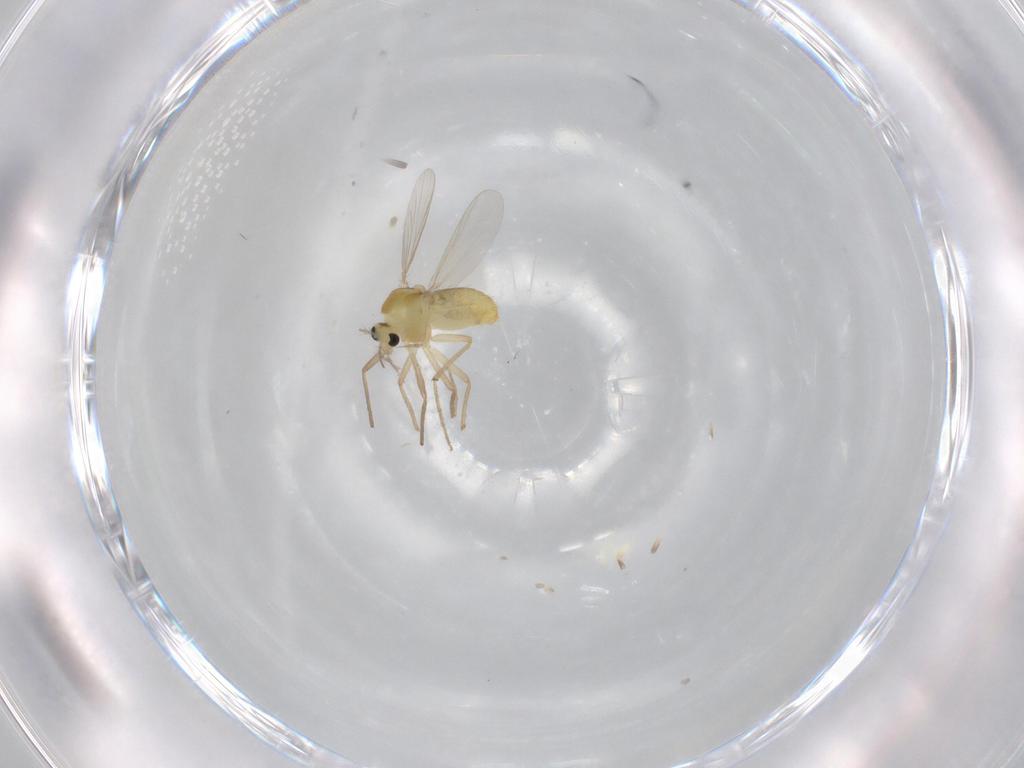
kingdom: Animalia
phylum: Arthropoda
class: Insecta
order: Diptera
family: Chironomidae
